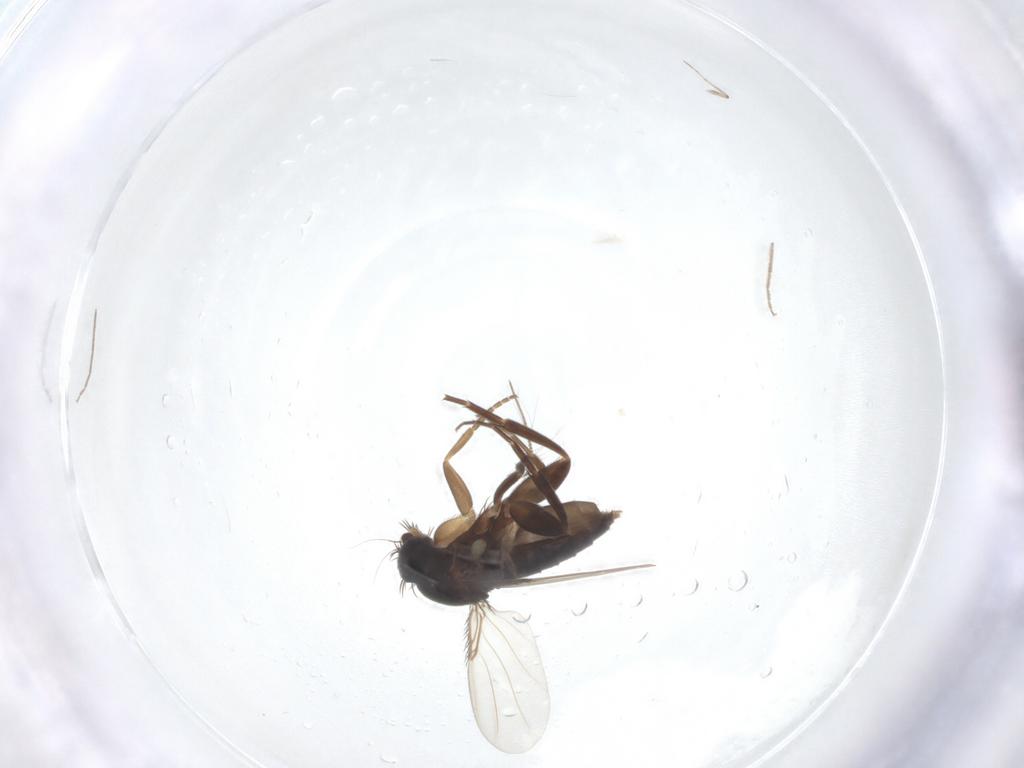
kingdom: Animalia
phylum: Arthropoda
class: Insecta
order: Diptera
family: Phoridae
